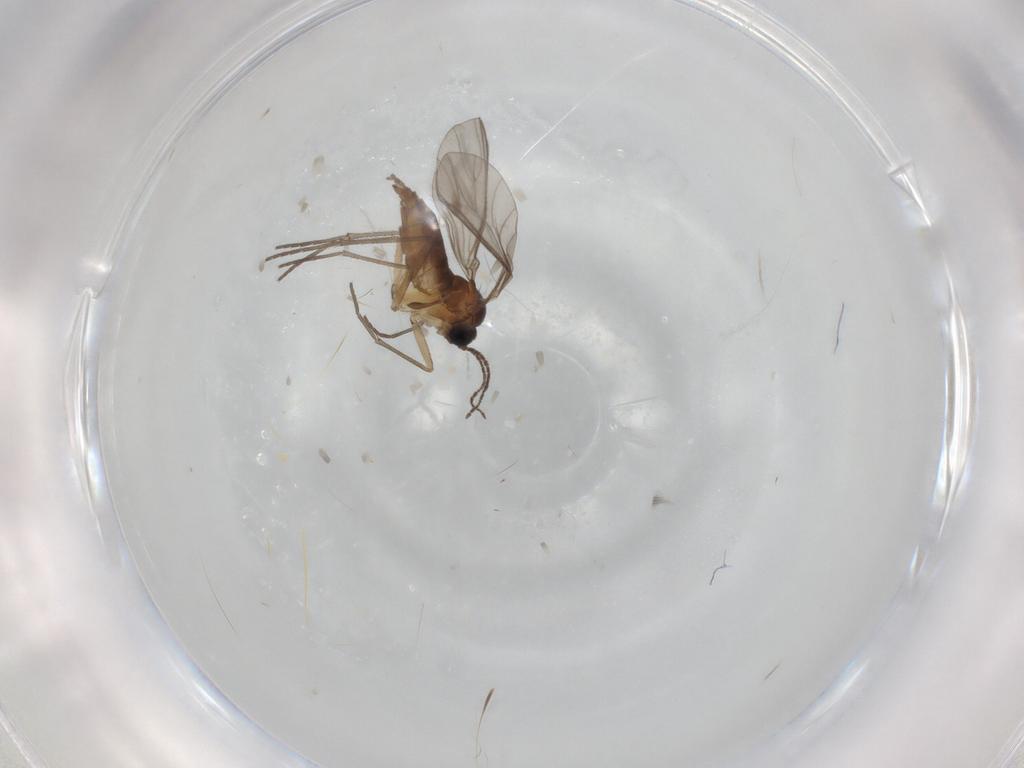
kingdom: Animalia
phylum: Arthropoda
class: Insecta
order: Diptera
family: Sciaridae
